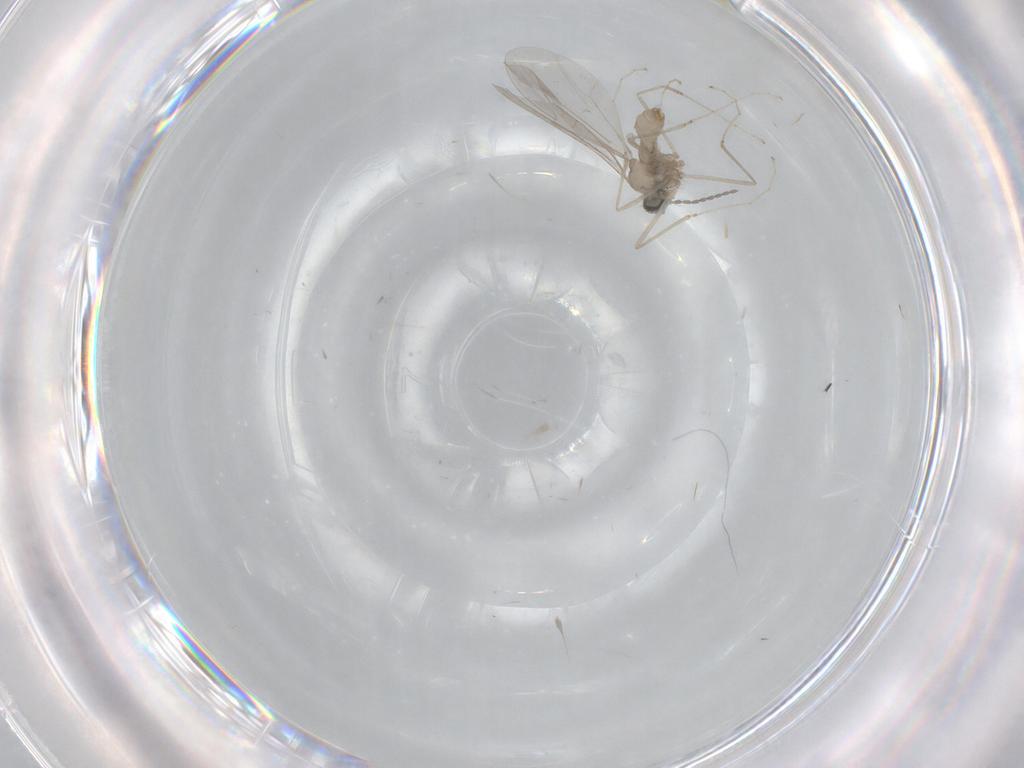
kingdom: Animalia
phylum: Arthropoda
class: Insecta
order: Diptera
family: Cecidomyiidae
